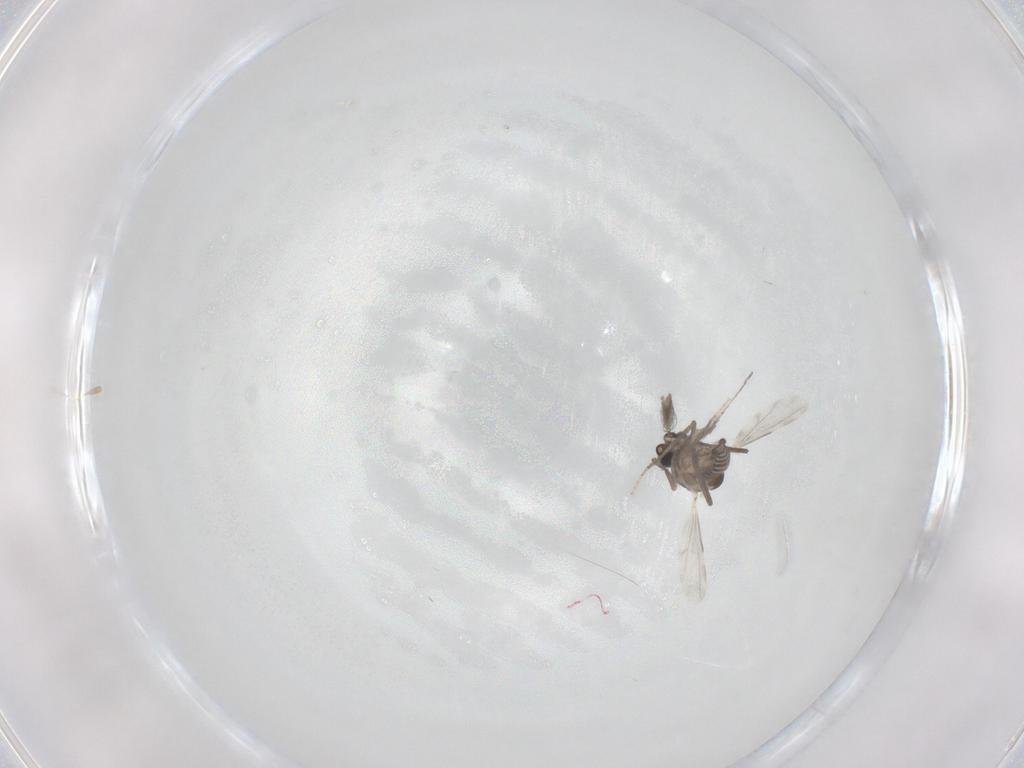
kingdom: Animalia
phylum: Arthropoda
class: Insecta
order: Diptera
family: Ceratopogonidae
